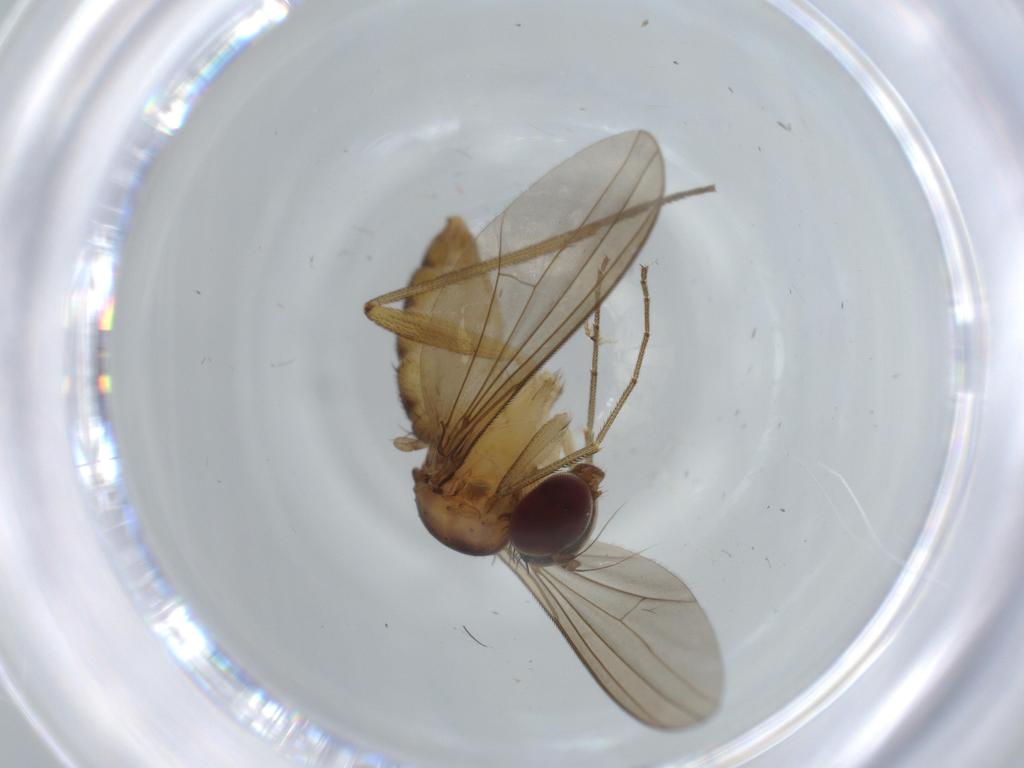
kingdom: Animalia
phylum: Arthropoda
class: Insecta
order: Diptera
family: Dolichopodidae
